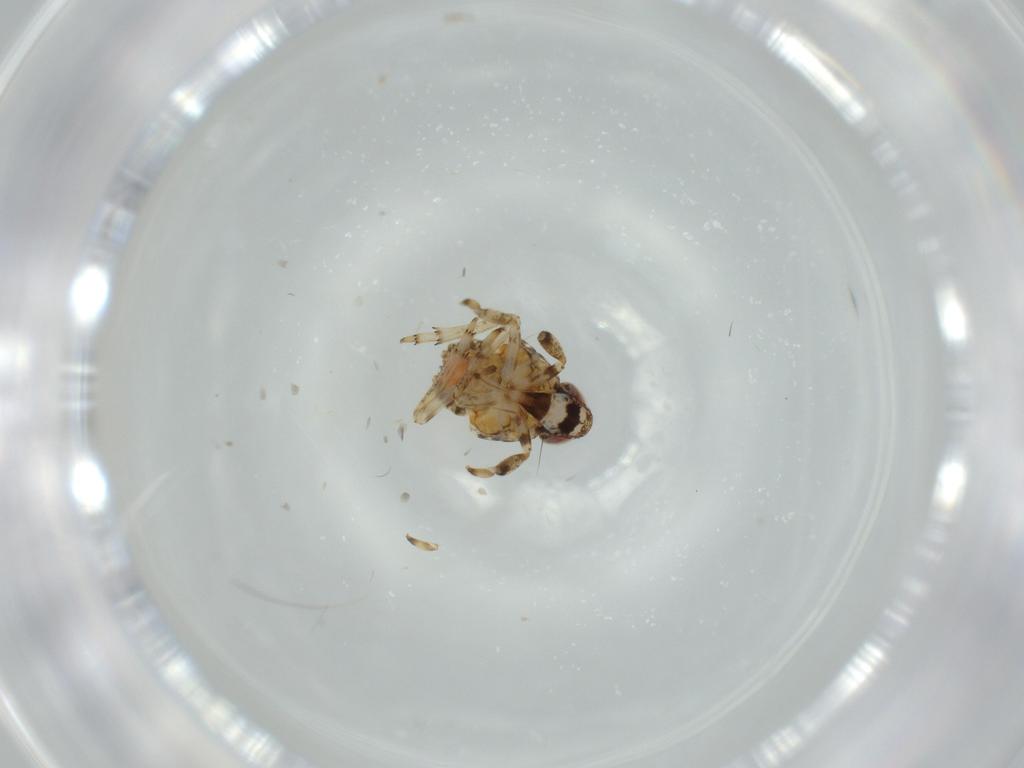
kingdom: Animalia
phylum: Arthropoda
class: Insecta
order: Hemiptera
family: Issidae
